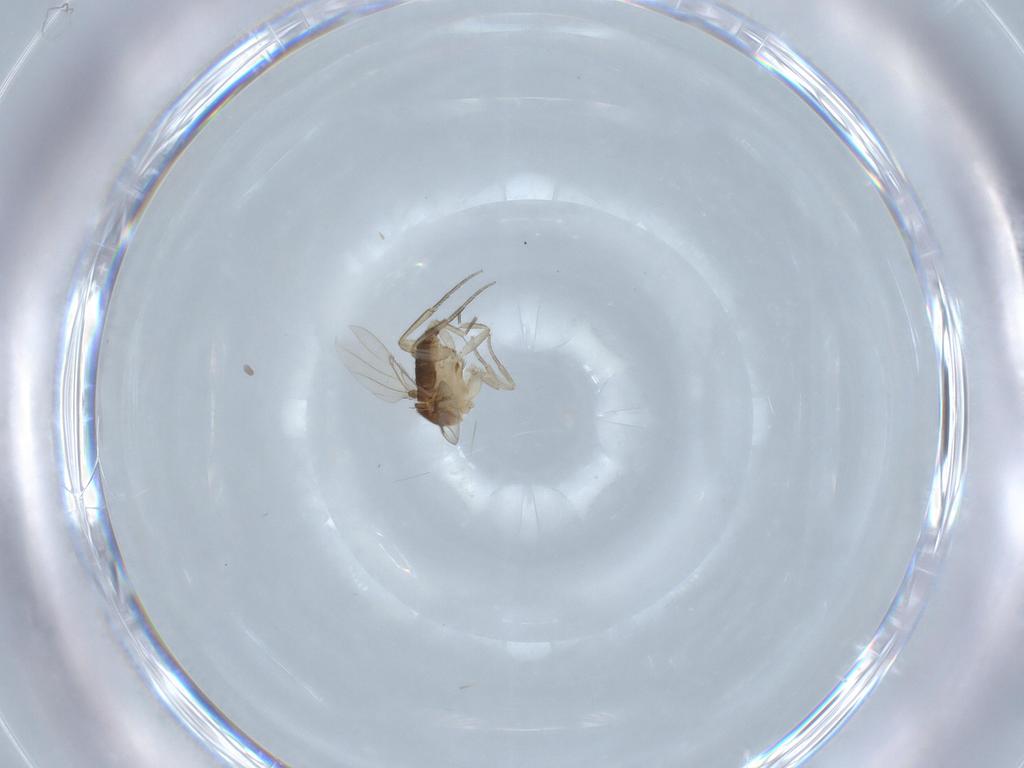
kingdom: Animalia
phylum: Arthropoda
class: Insecta
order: Diptera
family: Phoridae
